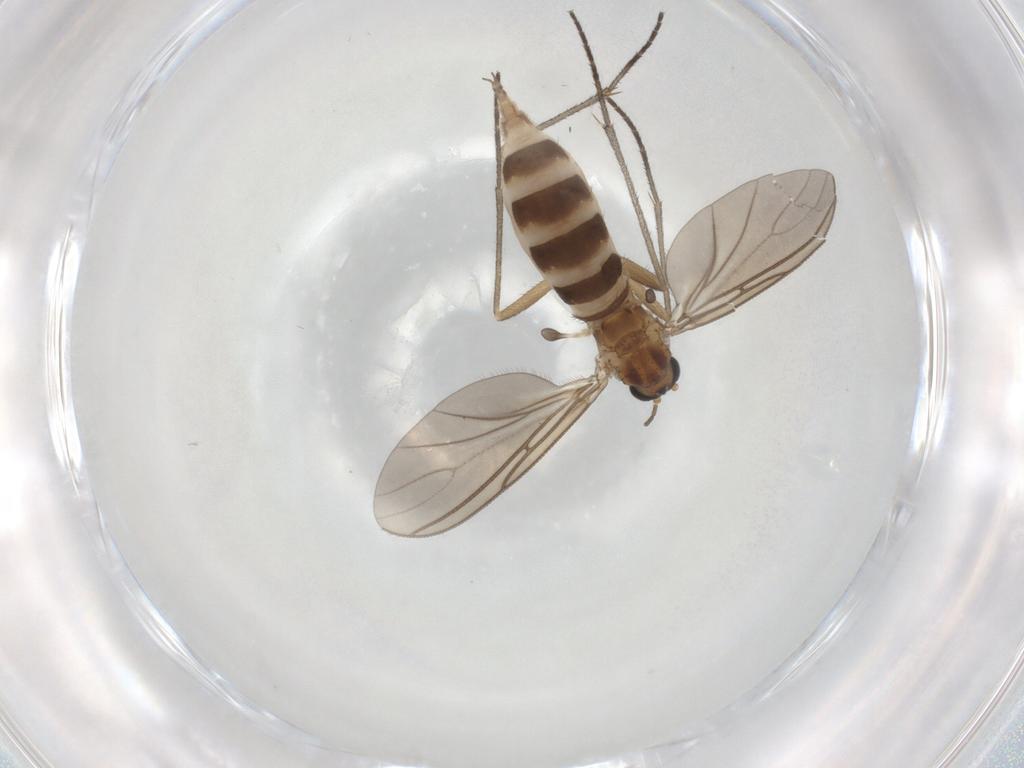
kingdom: Animalia
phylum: Arthropoda
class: Insecta
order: Diptera
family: Sciaridae
